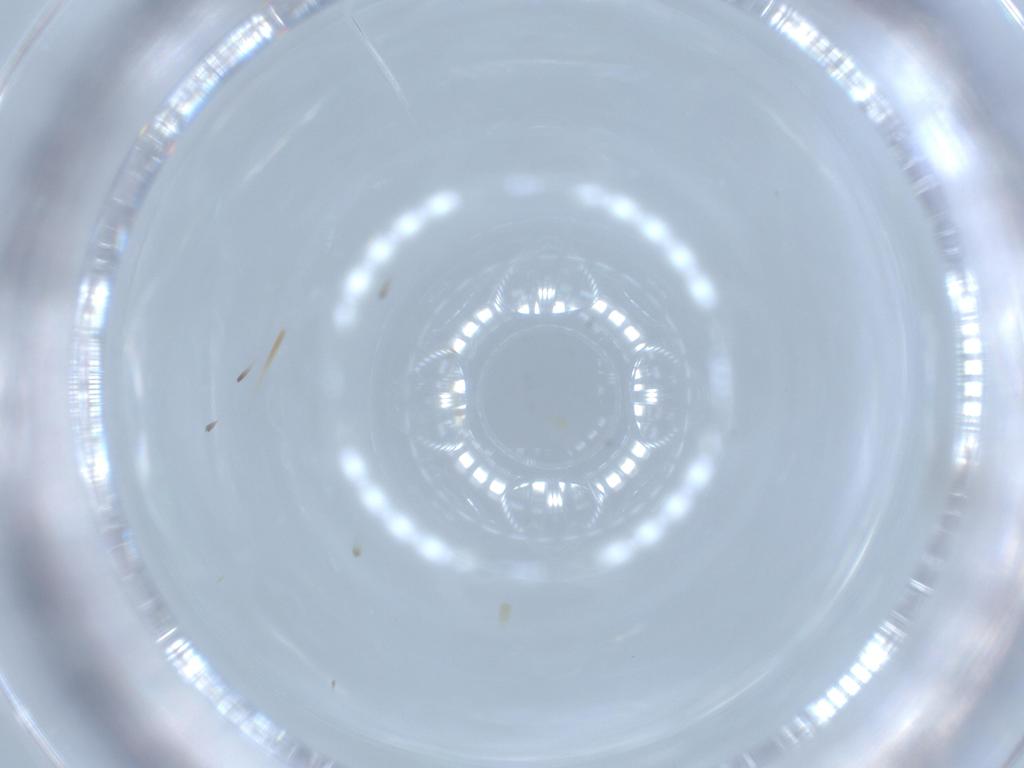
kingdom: Animalia
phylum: Arthropoda
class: Insecta
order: Diptera
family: Cecidomyiidae
